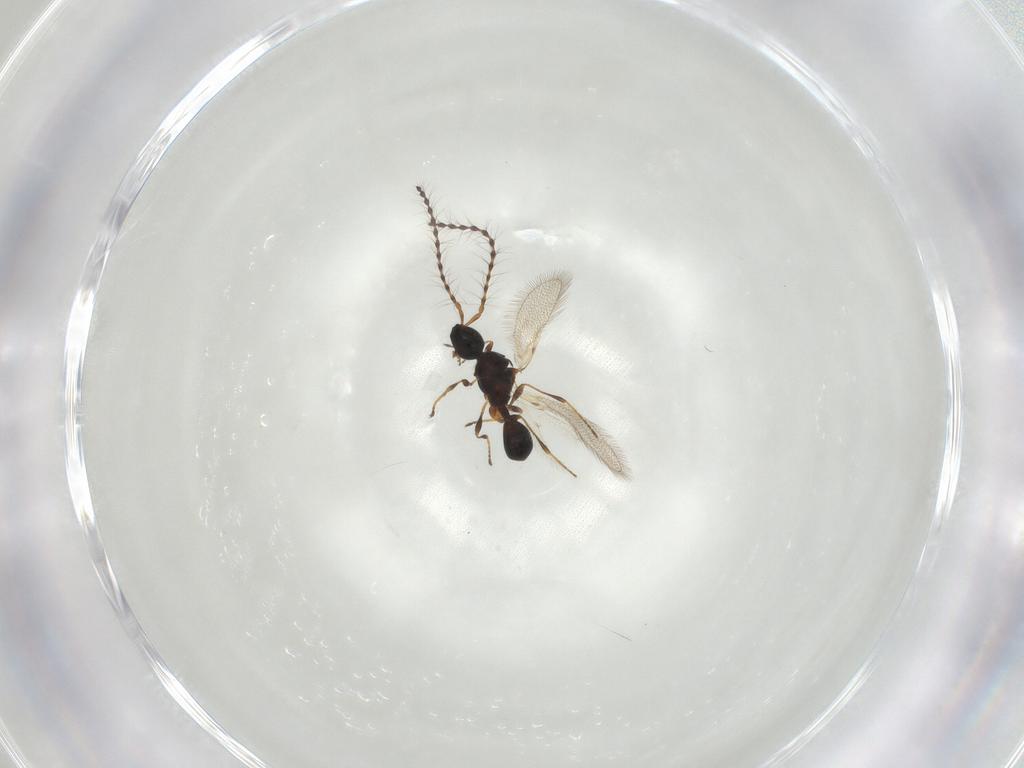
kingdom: Animalia
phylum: Arthropoda
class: Insecta
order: Hymenoptera
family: Diapriidae
